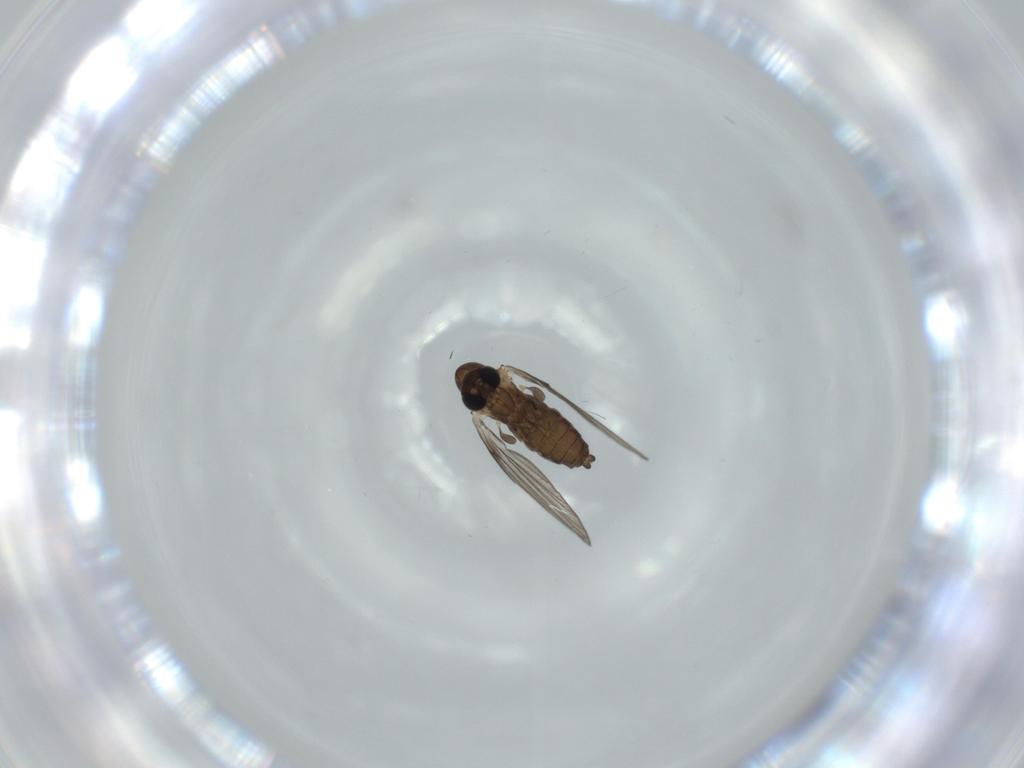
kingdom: Animalia
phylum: Arthropoda
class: Insecta
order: Diptera
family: Psychodidae
